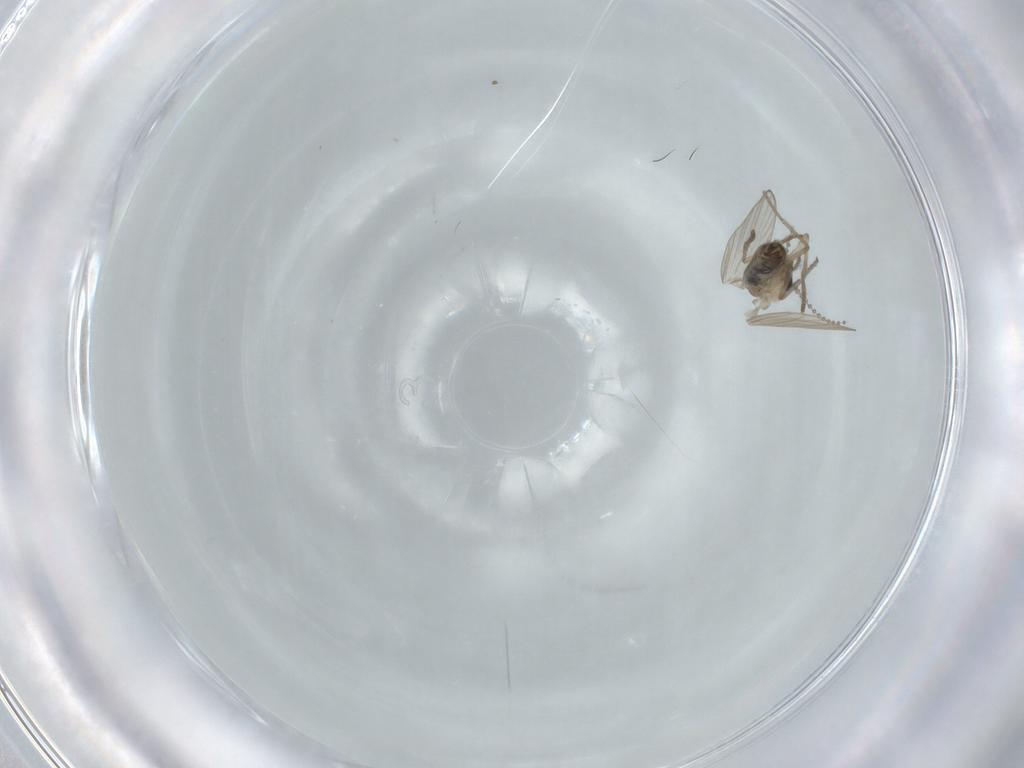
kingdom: Animalia
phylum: Arthropoda
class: Insecta
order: Diptera
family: Psychodidae
